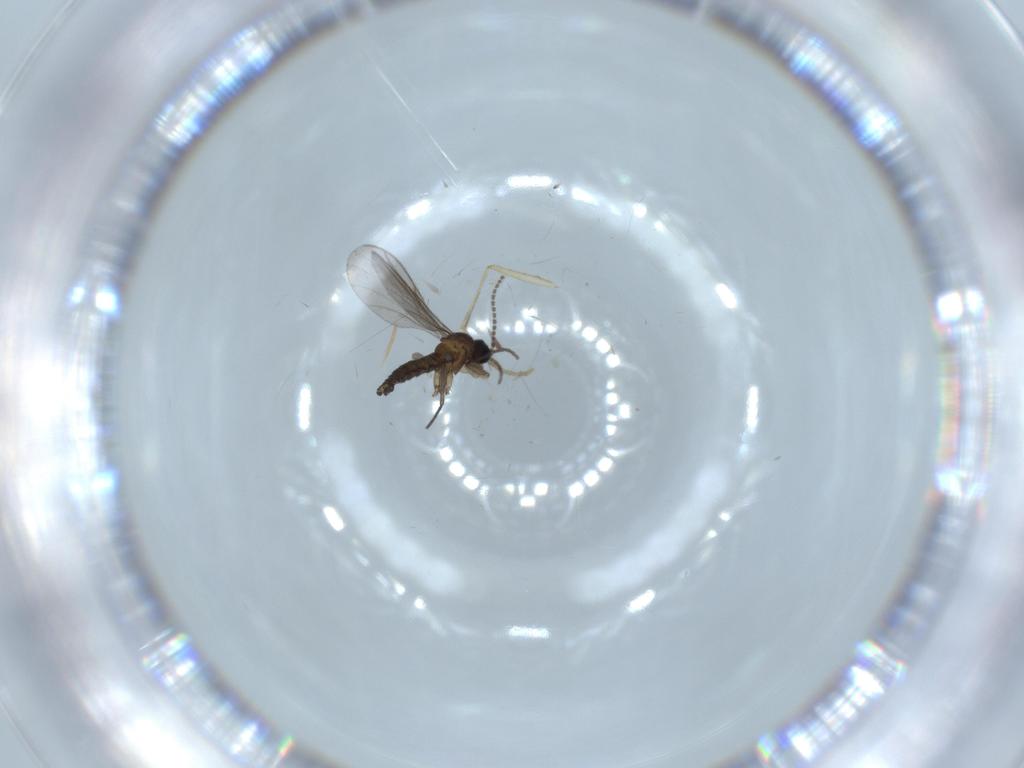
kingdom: Animalia
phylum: Arthropoda
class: Insecta
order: Diptera
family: Psychodidae
